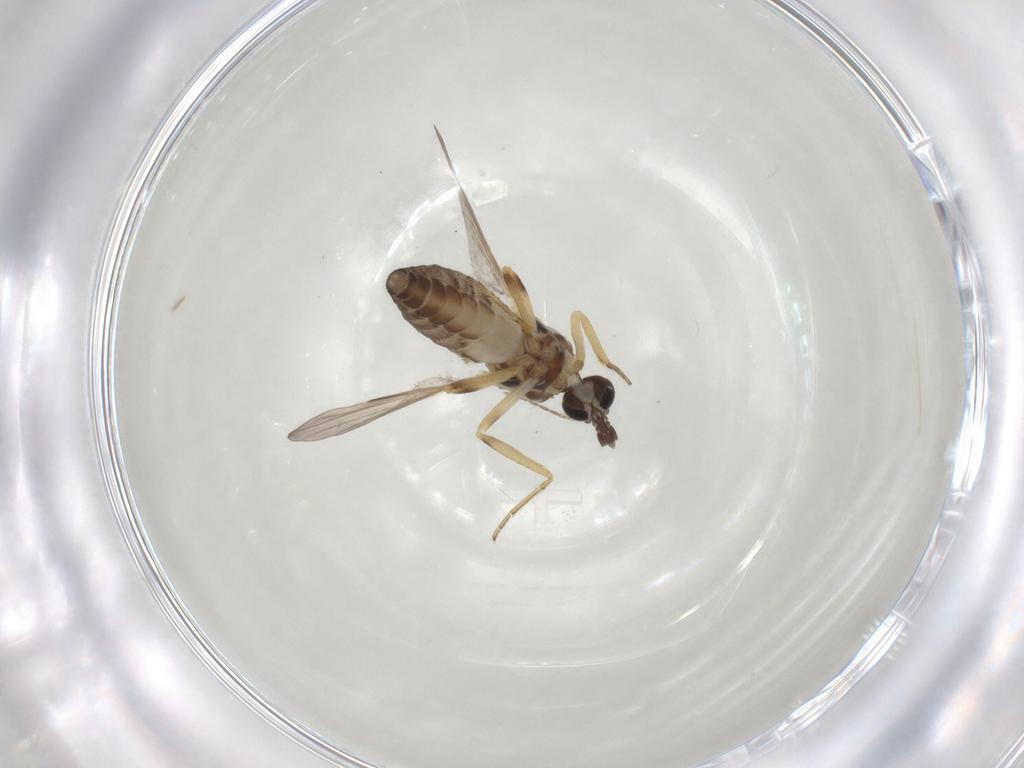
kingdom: Animalia
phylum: Arthropoda
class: Insecta
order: Diptera
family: Ceratopogonidae
